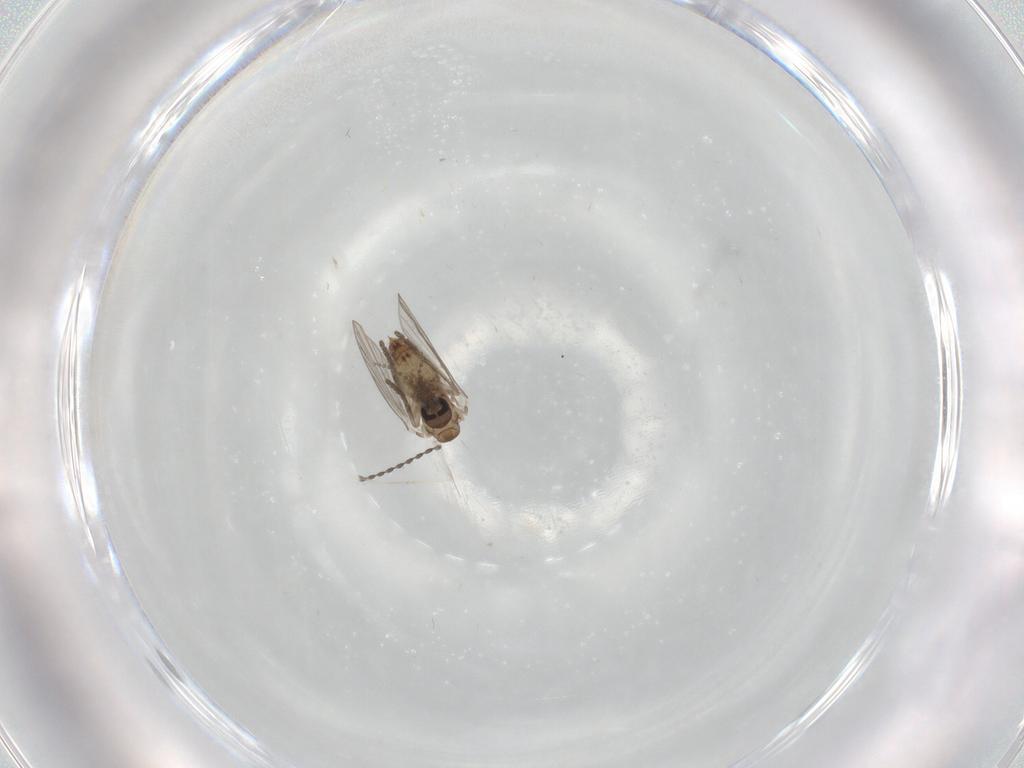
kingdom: Animalia
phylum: Arthropoda
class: Insecta
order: Diptera
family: Psychodidae
